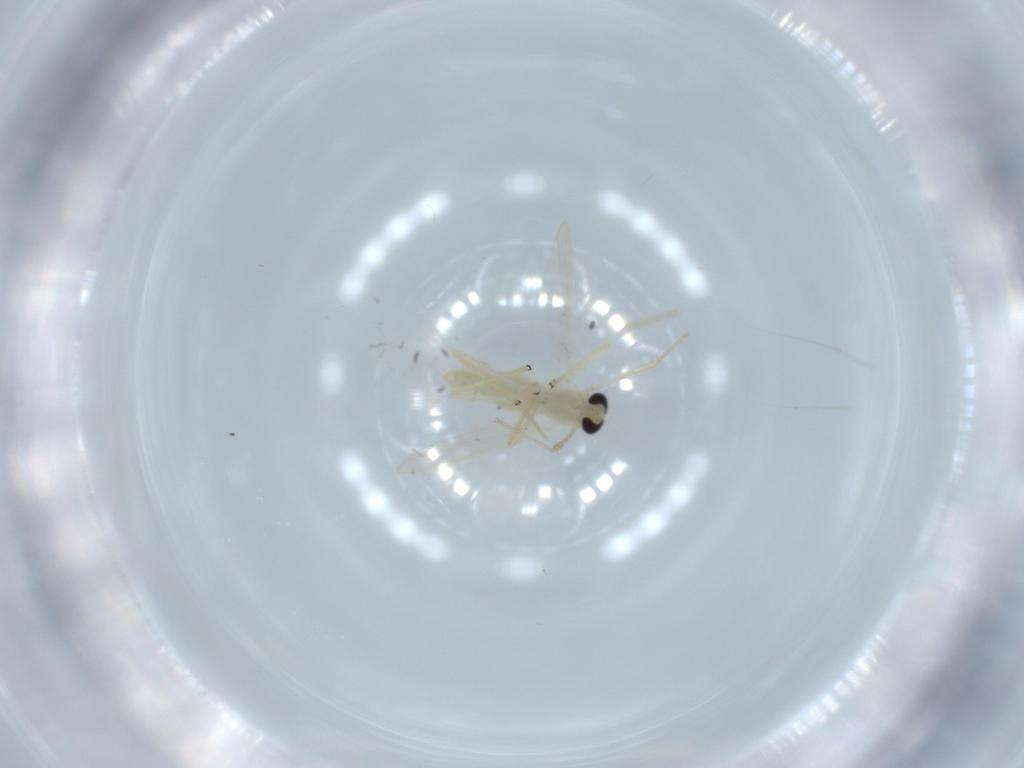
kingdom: Animalia
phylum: Arthropoda
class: Insecta
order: Diptera
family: Chironomidae
